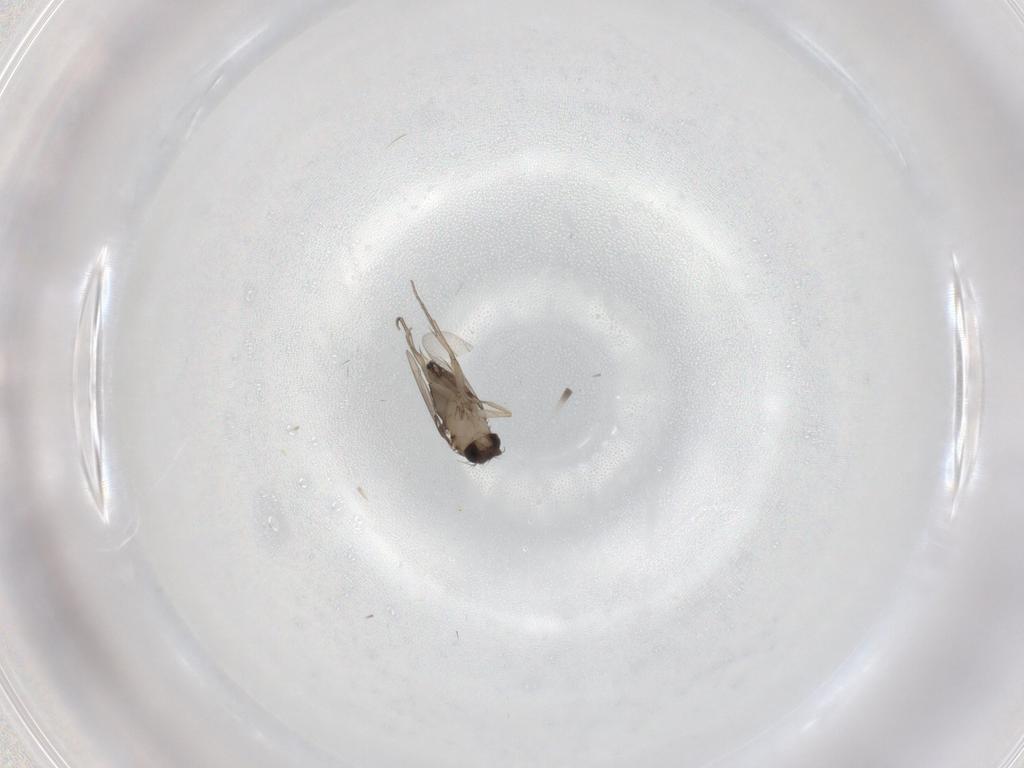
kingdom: Animalia
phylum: Arthropoda
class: Insecta
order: Diptera
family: Phoridae
